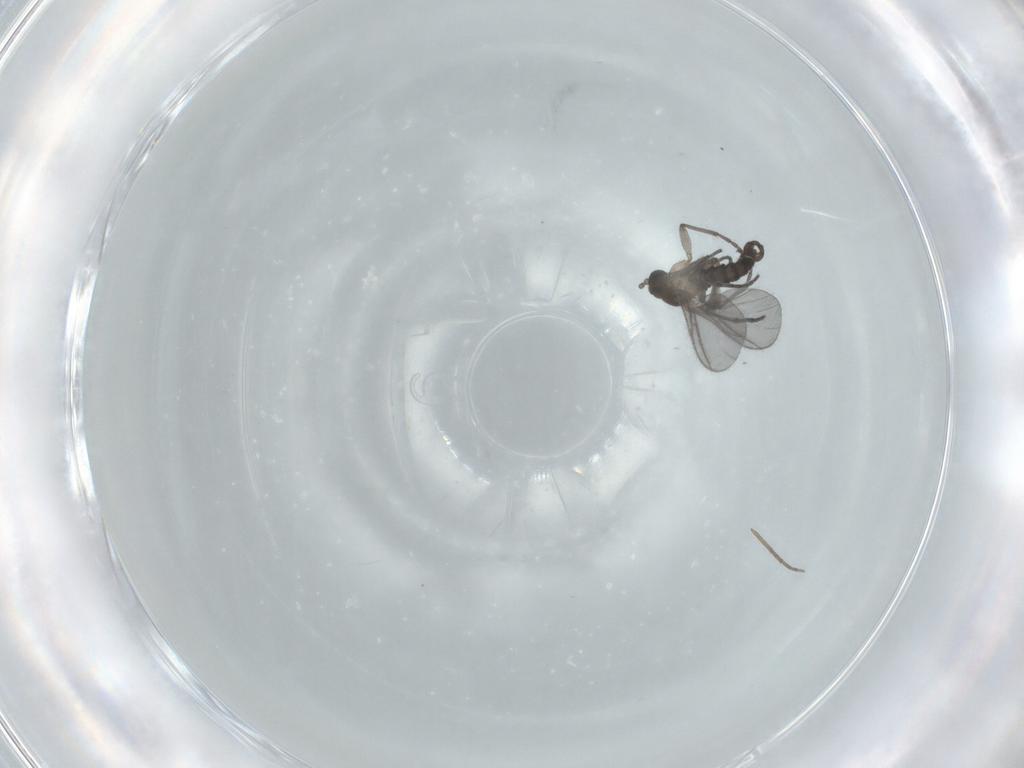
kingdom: Animalia
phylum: Arthropoda
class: Insecta
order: Diptera
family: Sciaridae
